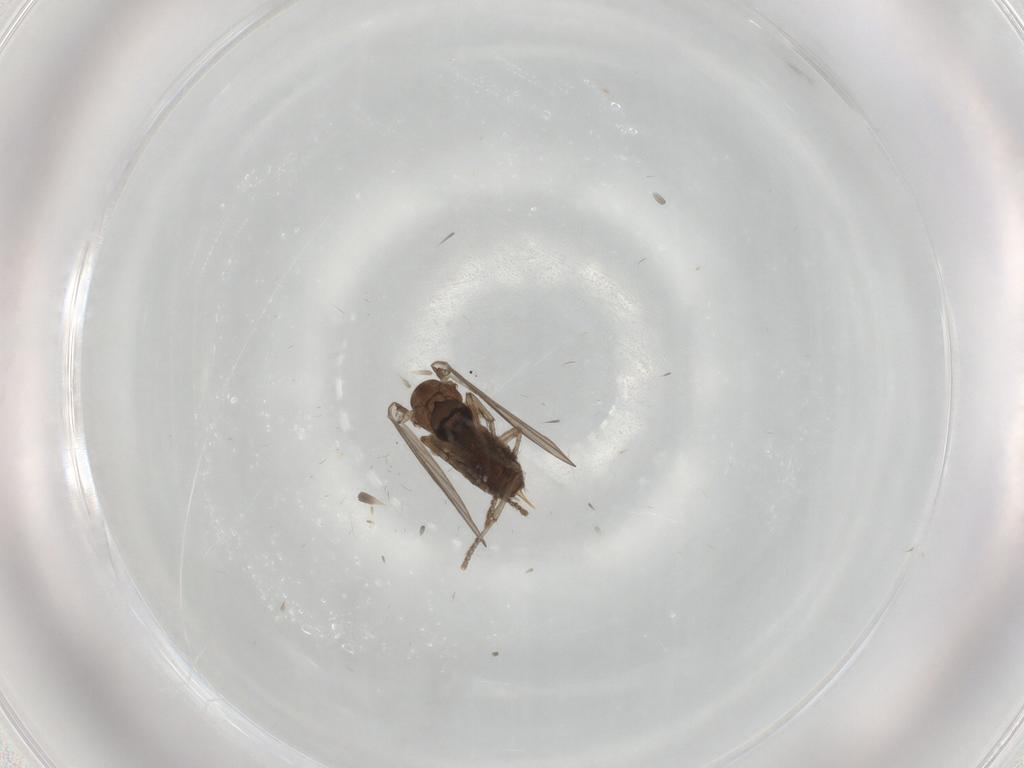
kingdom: Animalia
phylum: Arthropoda
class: Insecta
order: Diptera
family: Psychodidae
